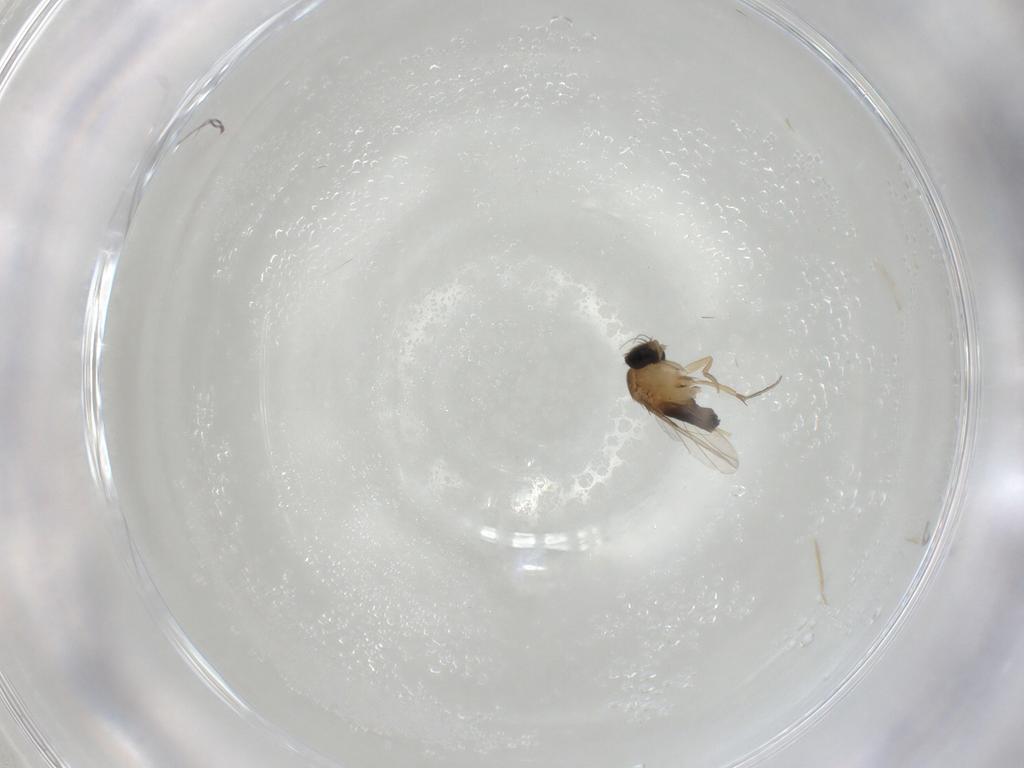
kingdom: Animalia
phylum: Arthropoda
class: Insecta
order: Diptera
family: Phoridae
